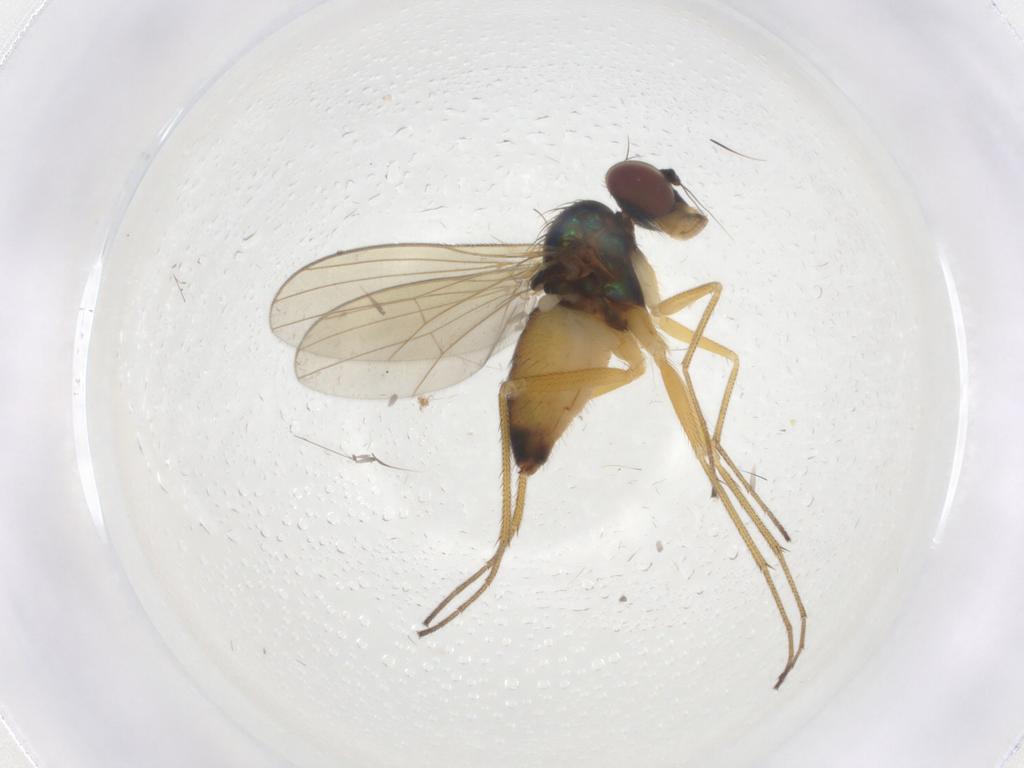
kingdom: Animalia
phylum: Arthropoda
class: Insecta
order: Diptera
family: Dolichopodidae
